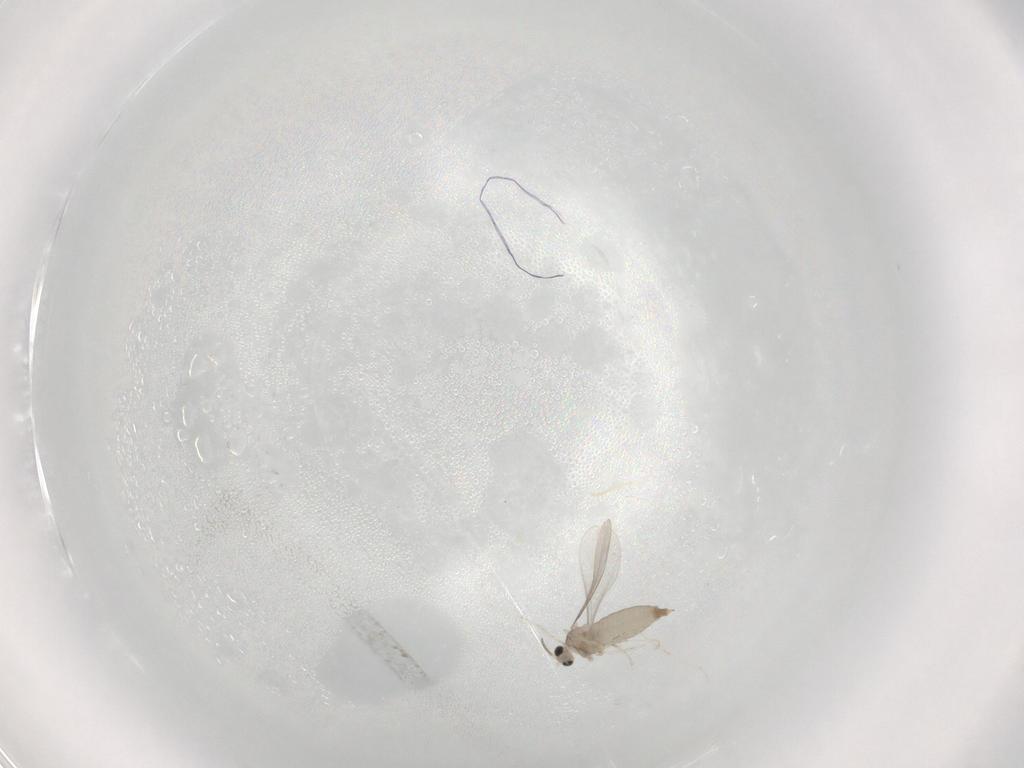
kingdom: Animalia
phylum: Arthropoda
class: Insecta
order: Diptera
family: Cecidomyiidae
